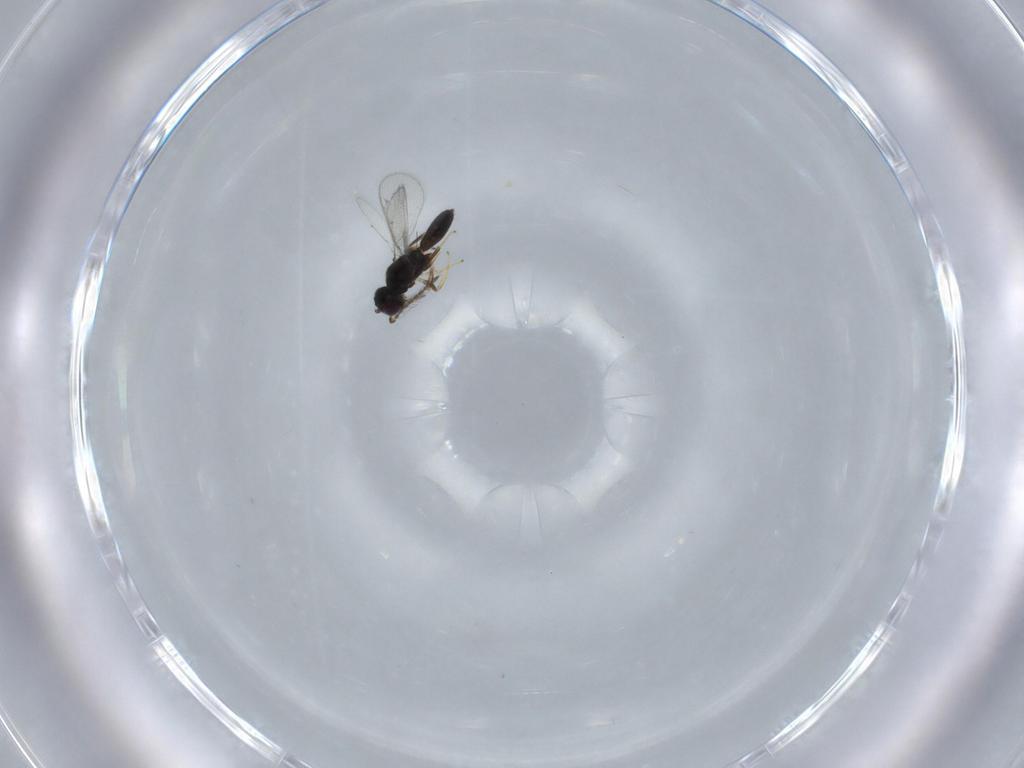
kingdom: Animalia
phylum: Arthropoda
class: Insecta
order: Hymenoptera
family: Eupelmidae
